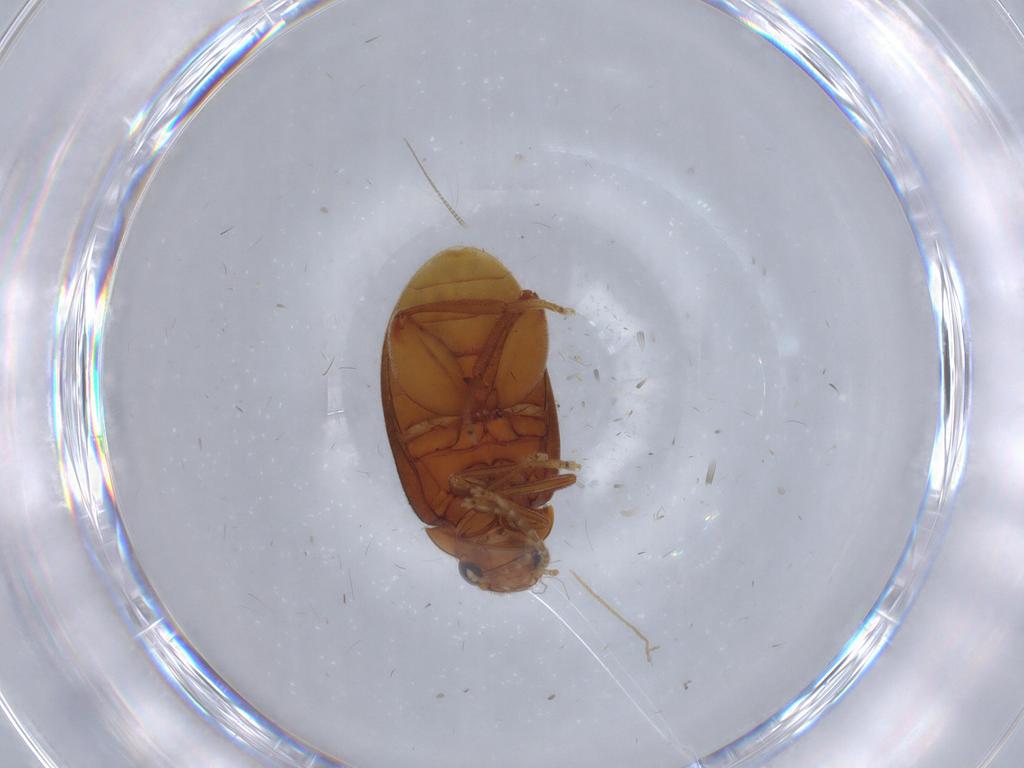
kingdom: Animalia
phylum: Arthropoda
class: Insecta
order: Coleoptera
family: Scirtidae
